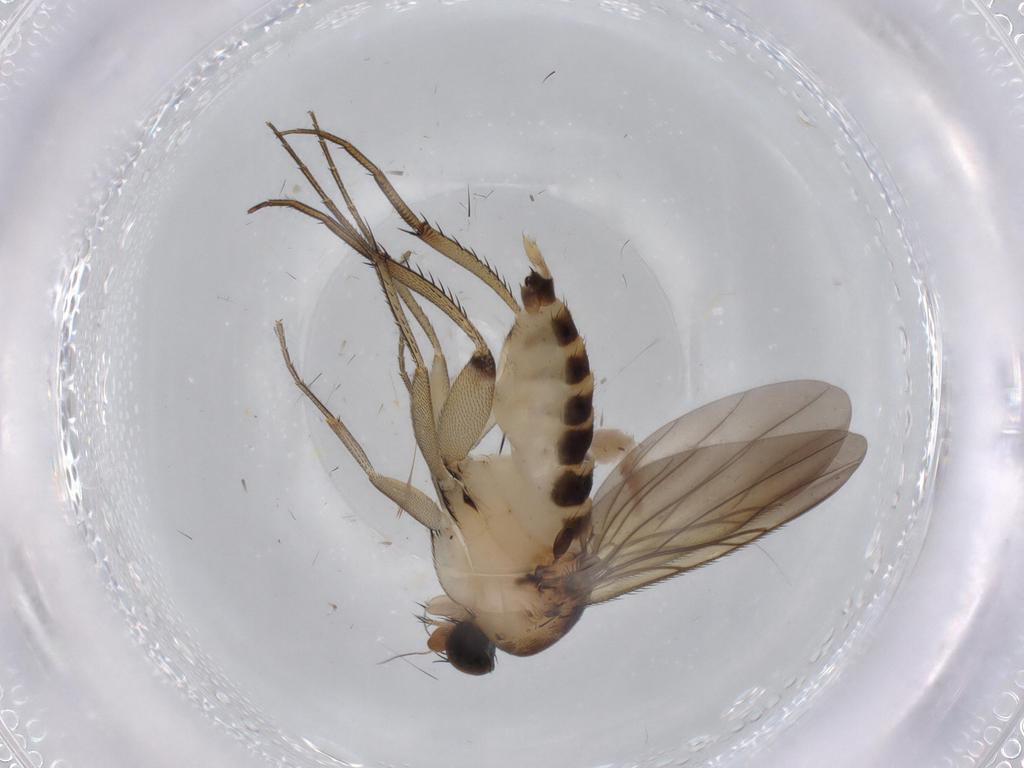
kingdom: Animalia
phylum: Arthropoda
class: Insecta
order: Diptera
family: Phoridae
